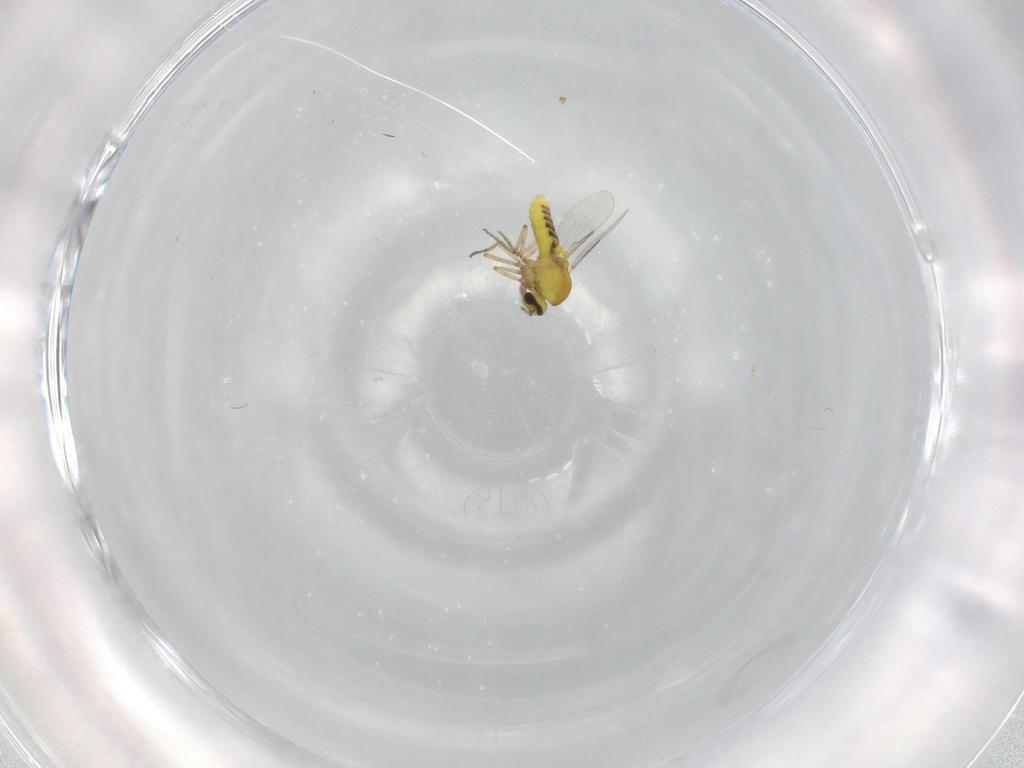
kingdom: Animalia
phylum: Arthropoda
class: Insecta
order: Diptera
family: Ceratopogonidae
